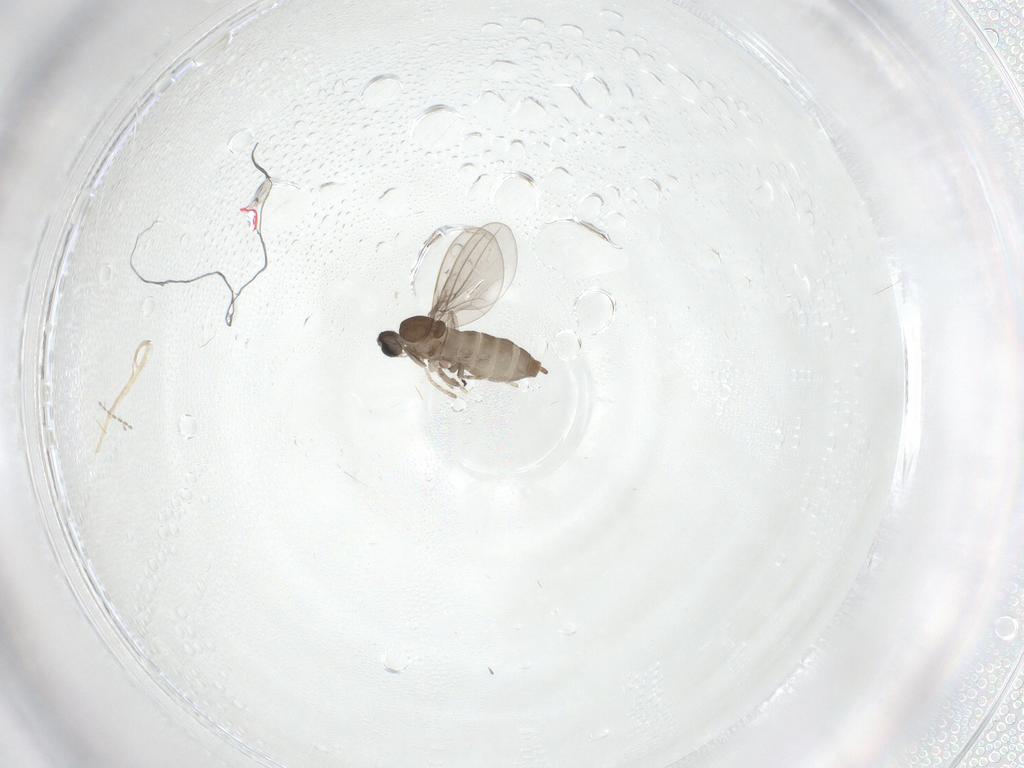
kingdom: Animalia
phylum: Arthropoda
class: Insecta
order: Diptera
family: Cecidomyiidae
